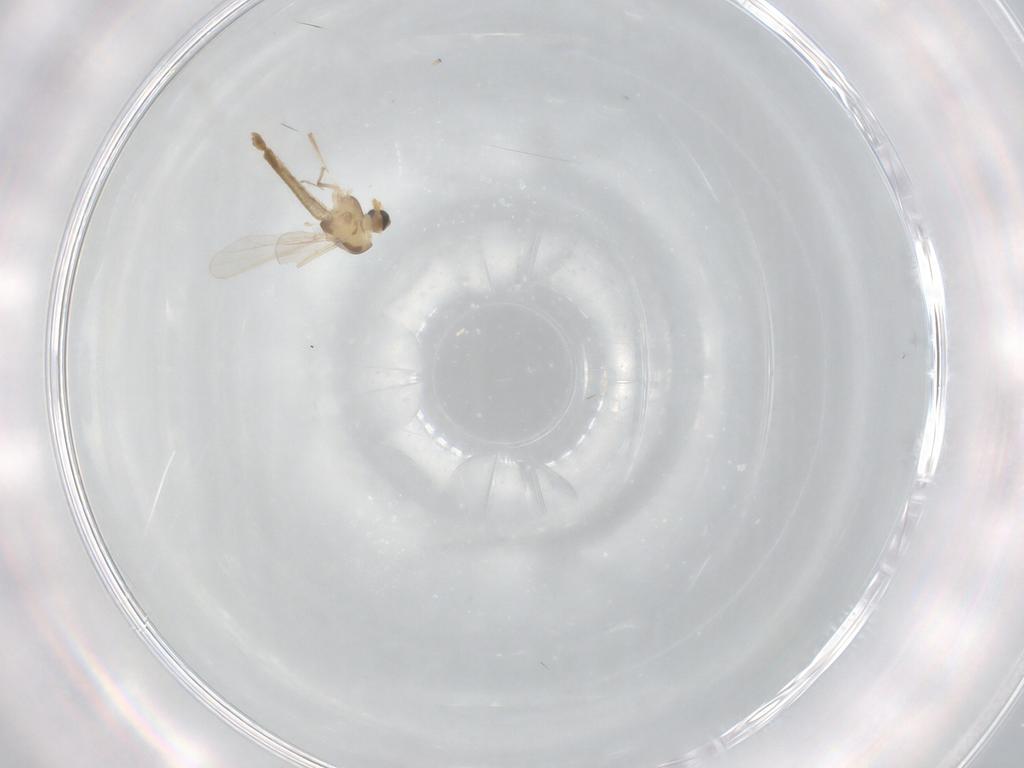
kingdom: Animalia
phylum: Arthropoda
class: Insecta
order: Diptera
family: Chironomidae
